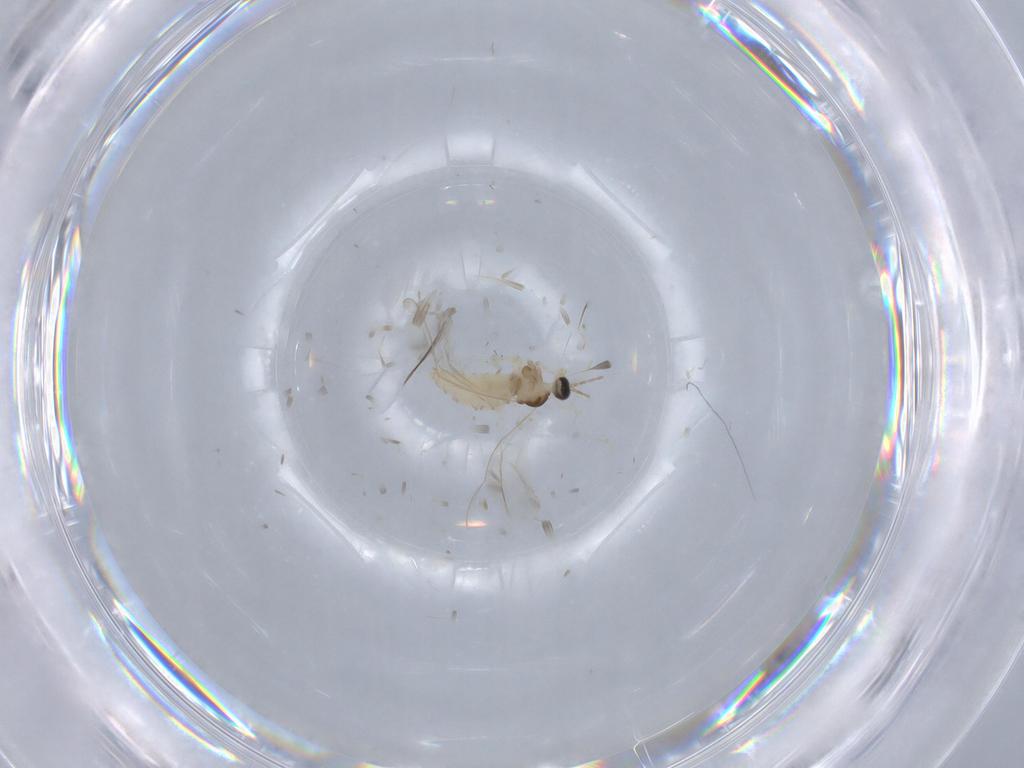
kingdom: Animalia
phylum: Arthropoda
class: Insecta
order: Diptera
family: Cecidomyiidae
